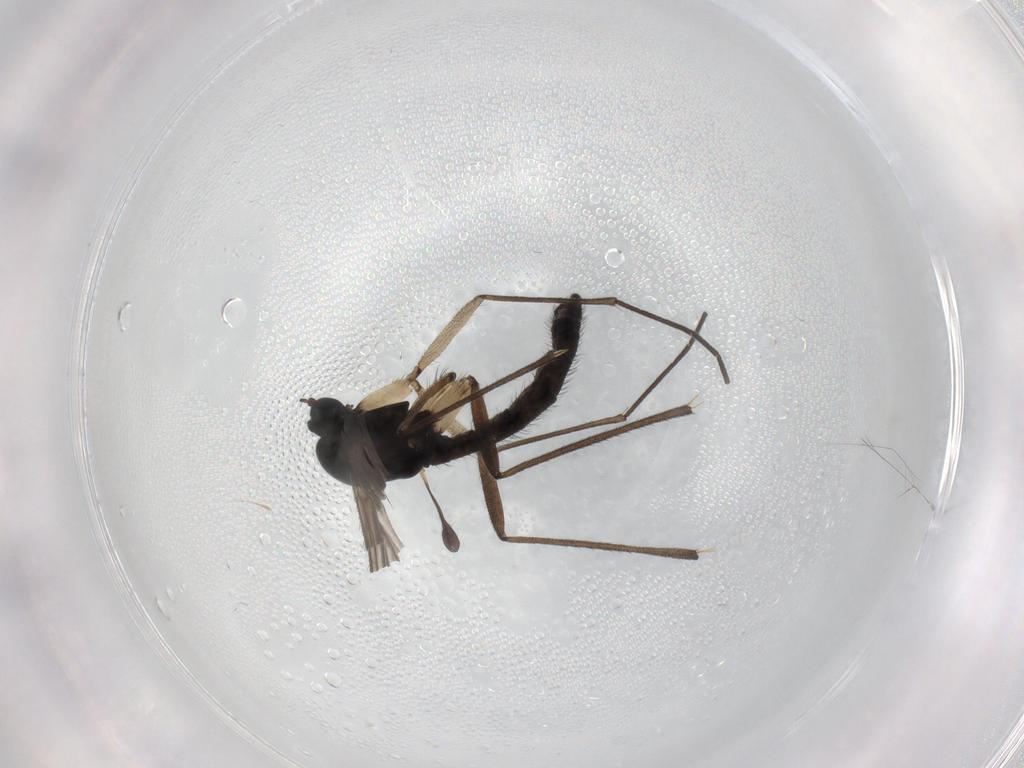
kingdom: Animalia
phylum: Arthropoda
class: Insecta
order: Diptera
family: Sciaridae
